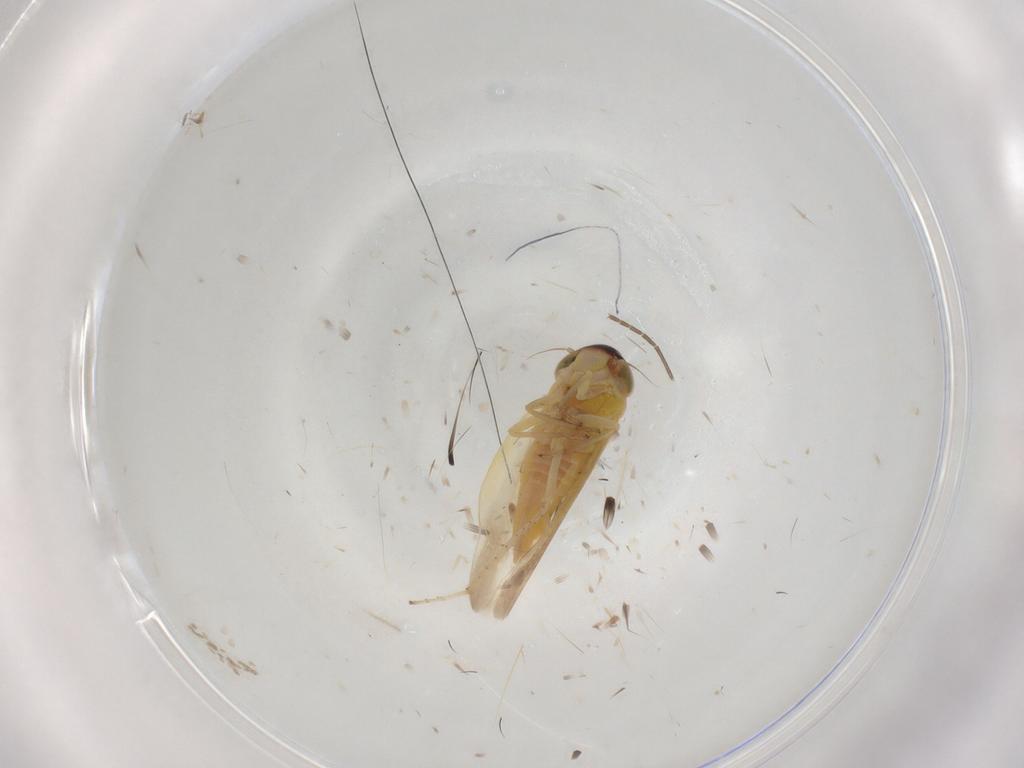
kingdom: Animalia
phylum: Arthropoda
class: Insecta
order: Hemiptera
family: Cicadellidae
